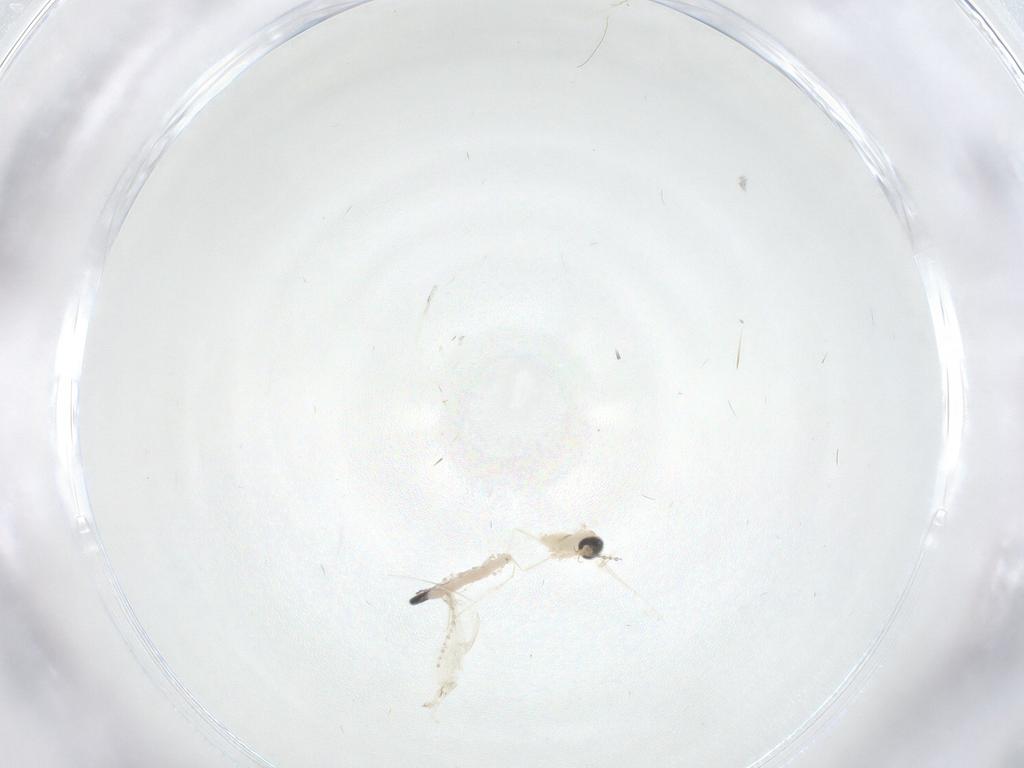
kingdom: Animalia
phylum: Arthropoda
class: Insecta
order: Diptera
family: Cecidomyiidae
